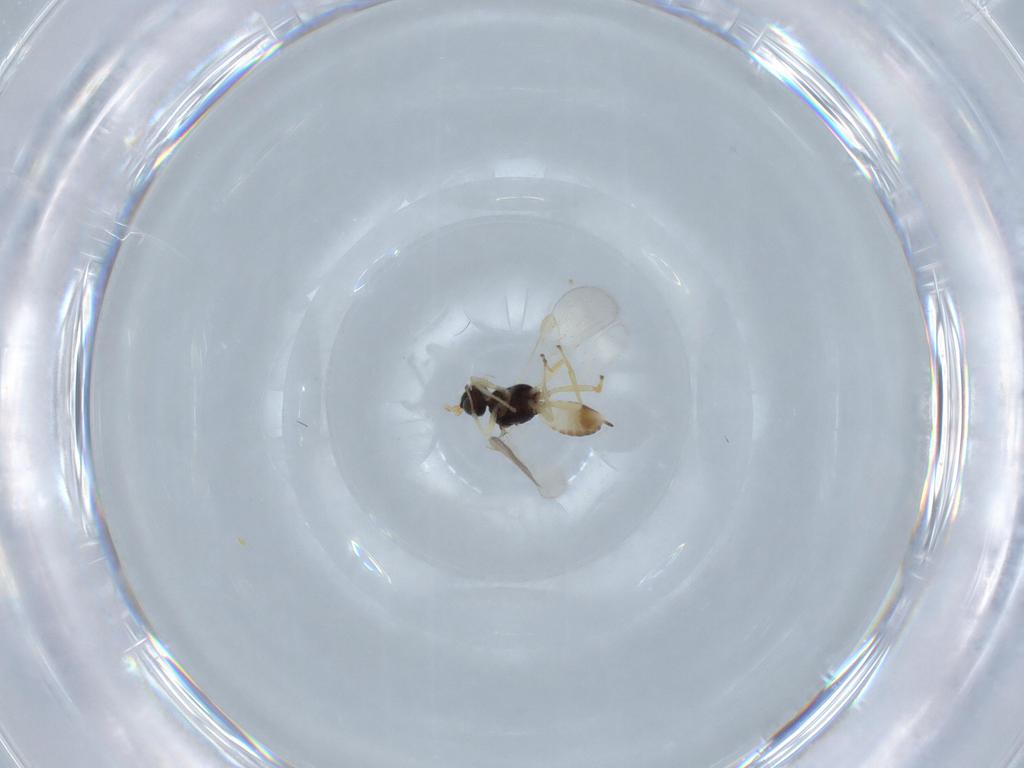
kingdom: Animalia
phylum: Arthropoda
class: Insecta
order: Hymenoptera
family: Braconidae
